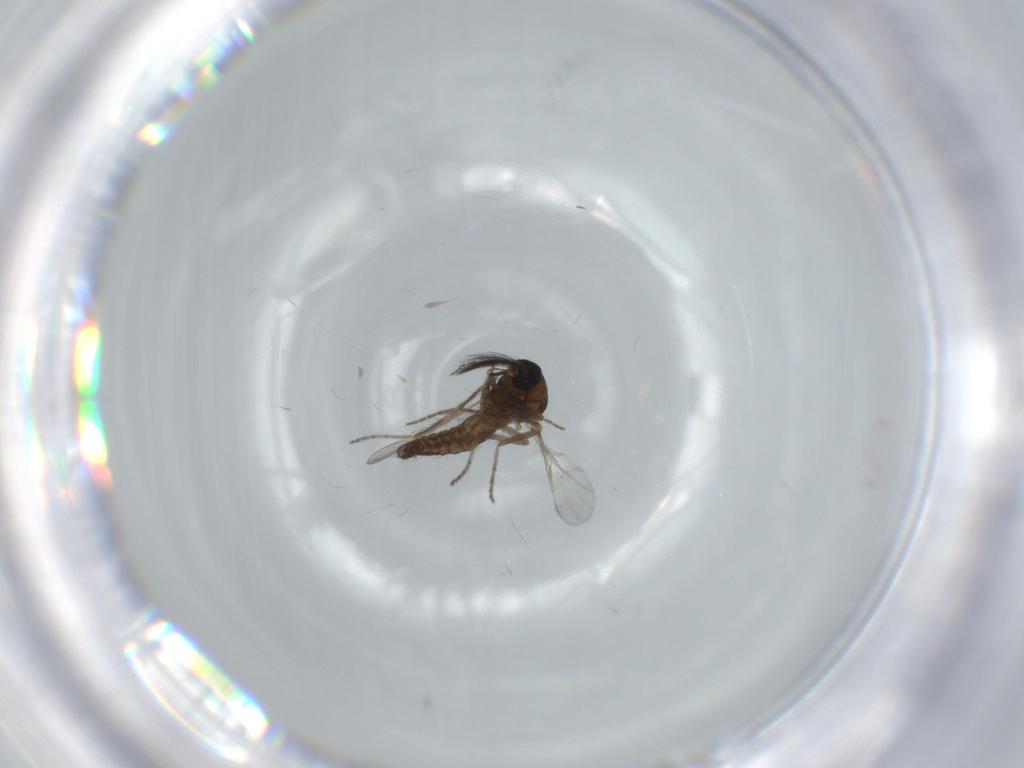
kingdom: Animalia
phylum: Arthropoda
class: Insecta
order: Diptera
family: Ceratopogonidae
